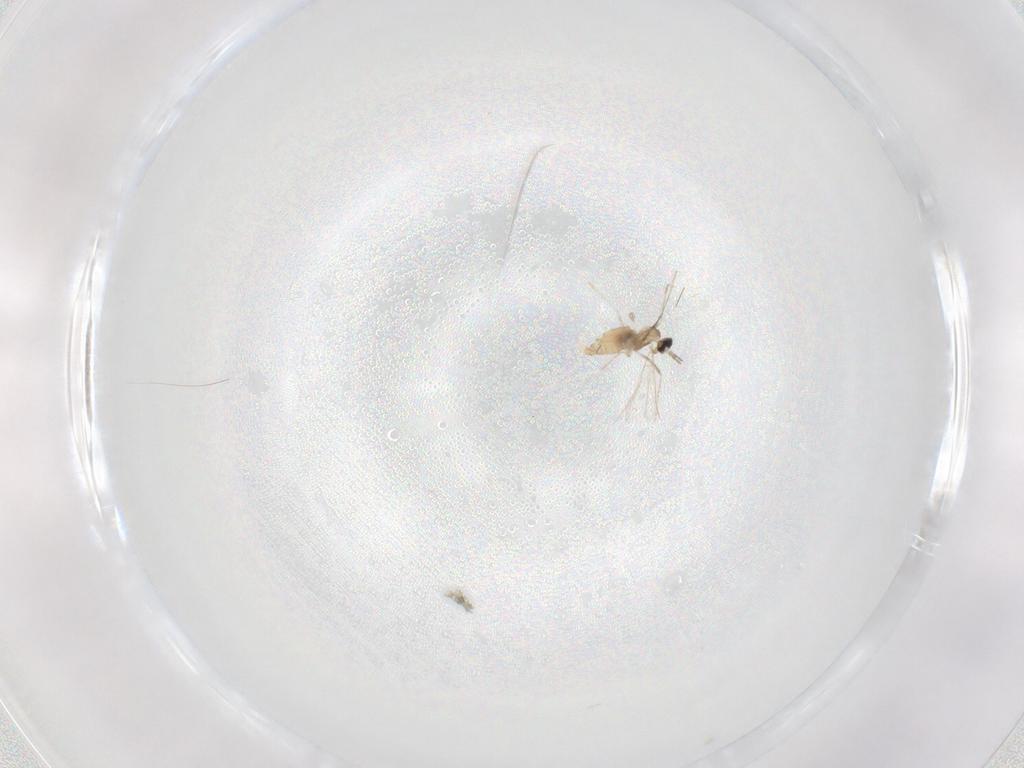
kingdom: Animalia
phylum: Arthropoda
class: Insecta
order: Diptera
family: Cecidomyiidae
